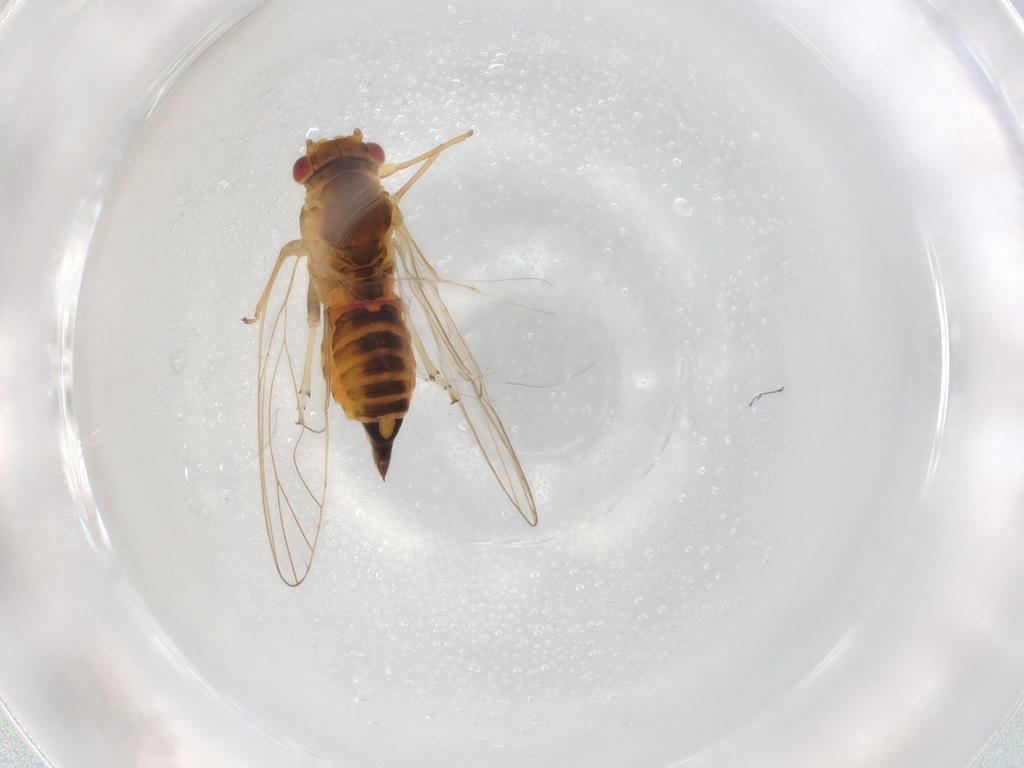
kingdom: Animalia
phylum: Arthropoda
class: Insecta
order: Hemiptera
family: Psyllidae
